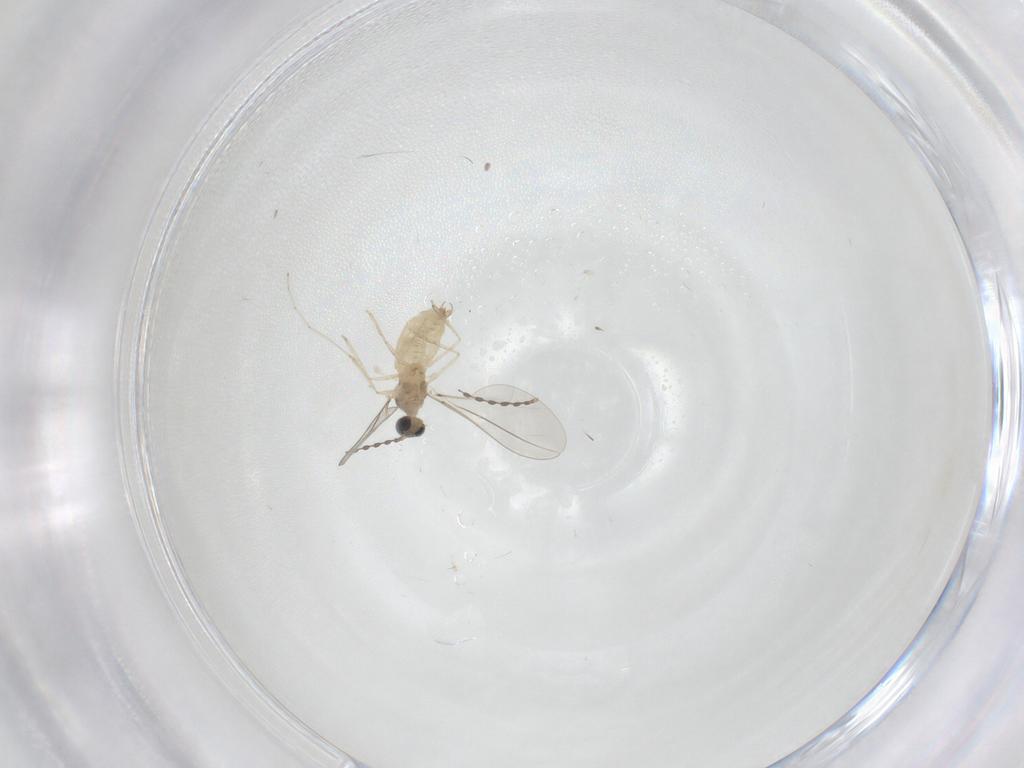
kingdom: Animalia
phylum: Arthropoda
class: Insecta
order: Diptera
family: Cecidomyiidae
